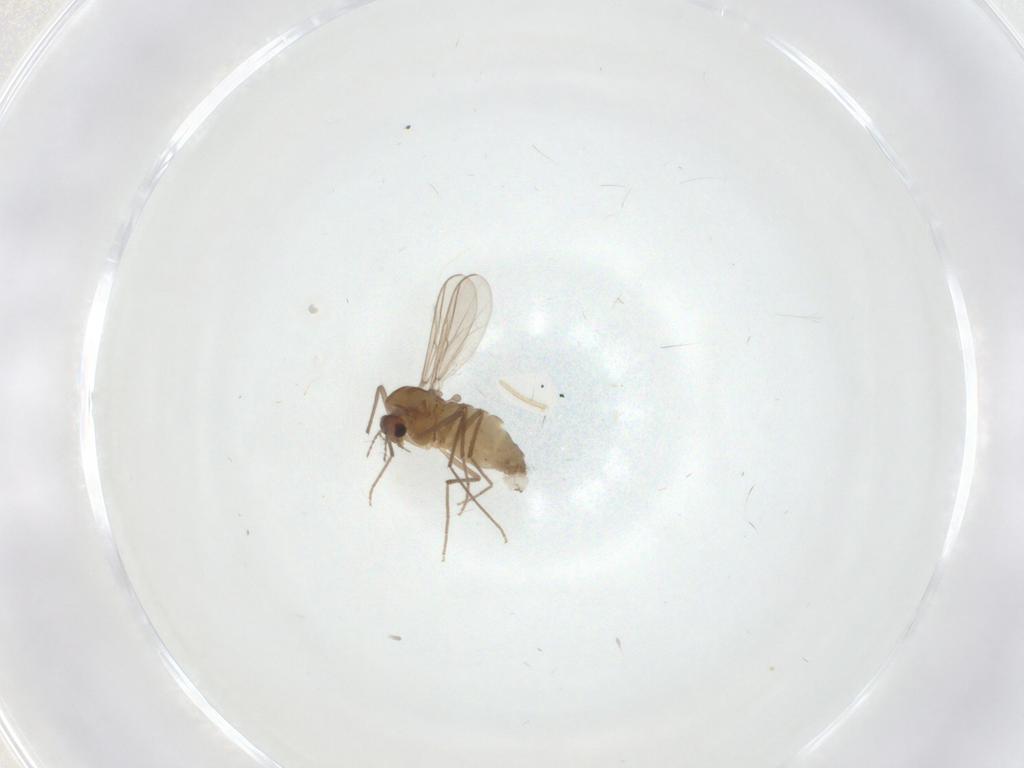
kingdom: Animalia
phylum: Arthropoda
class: Insecta
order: Diptera
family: Chironomidae
